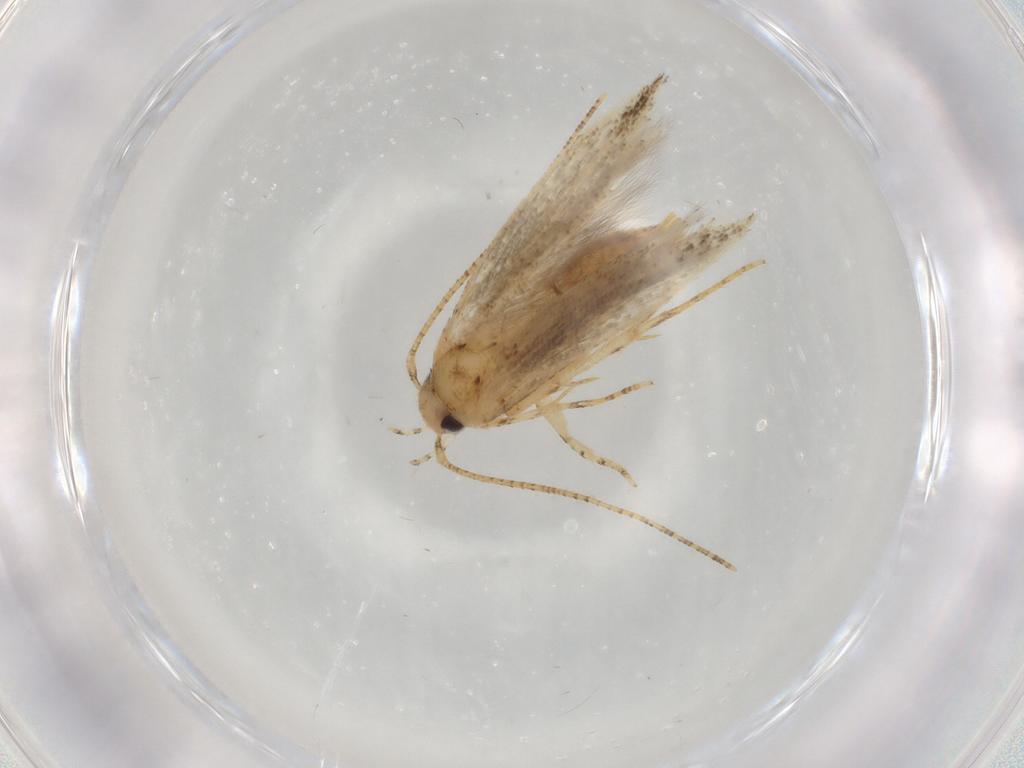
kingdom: Animalia
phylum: Arthropoda
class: Insecta
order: Lepidoptera
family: Gelechiidae
